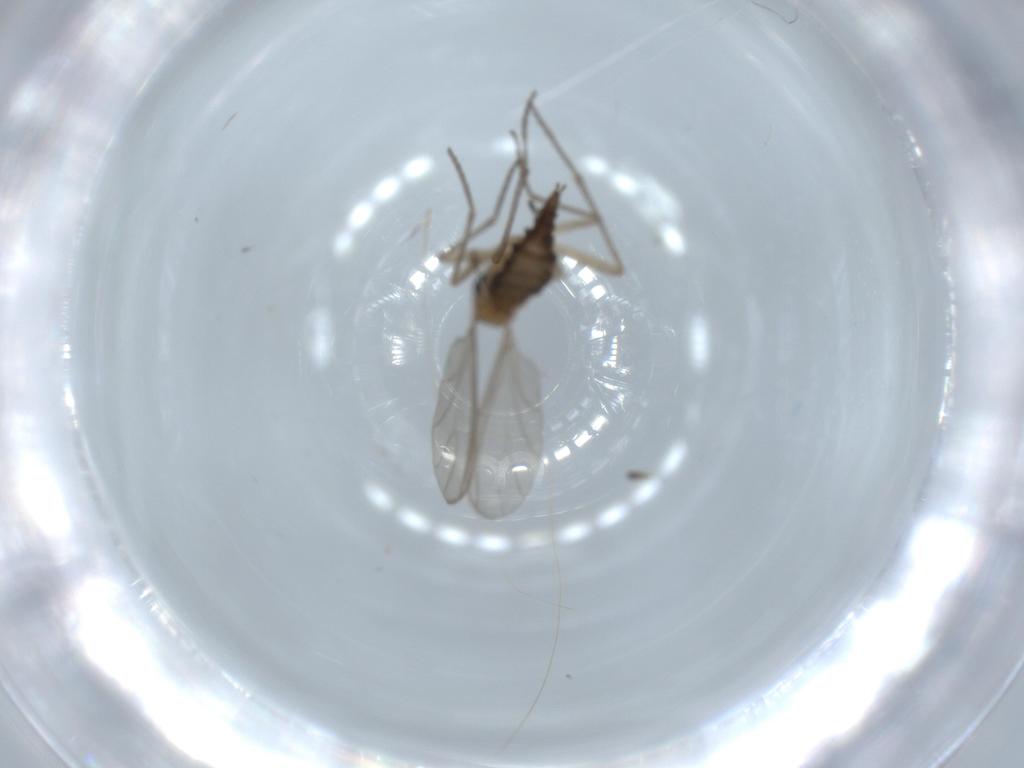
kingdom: Animalia
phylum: Arthropoda
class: Insecta
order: Diptera
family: Sciaridae
